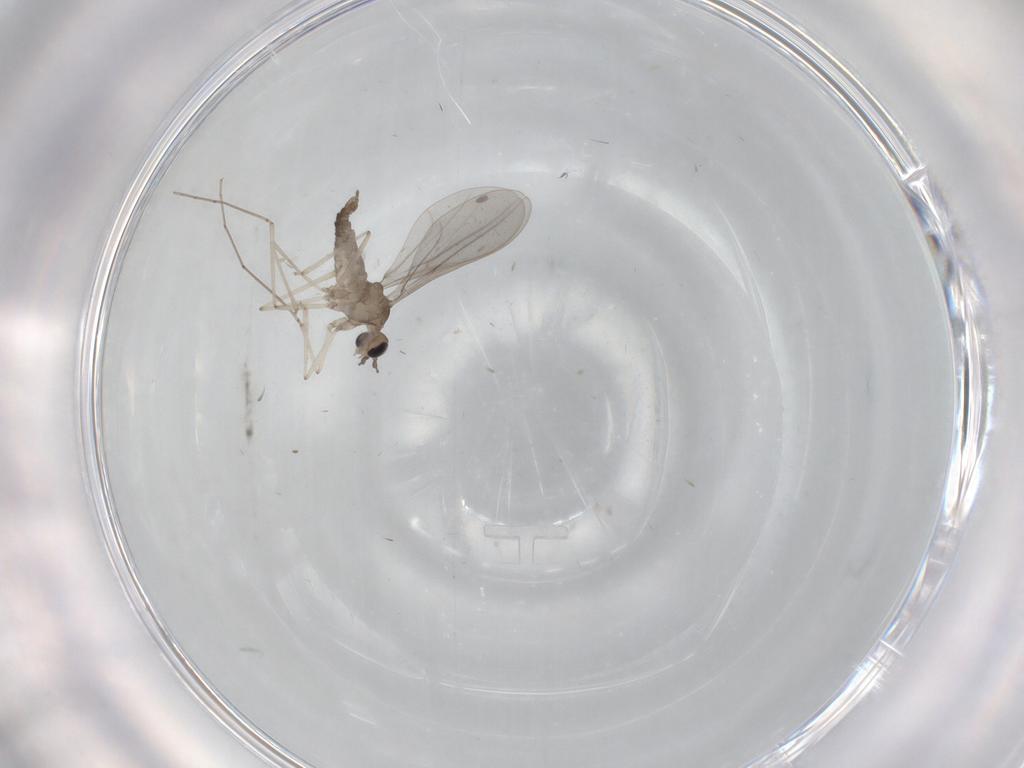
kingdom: Animalia
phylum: Arthropoda
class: Insecta
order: Diptera
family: Cecidomyiidae
